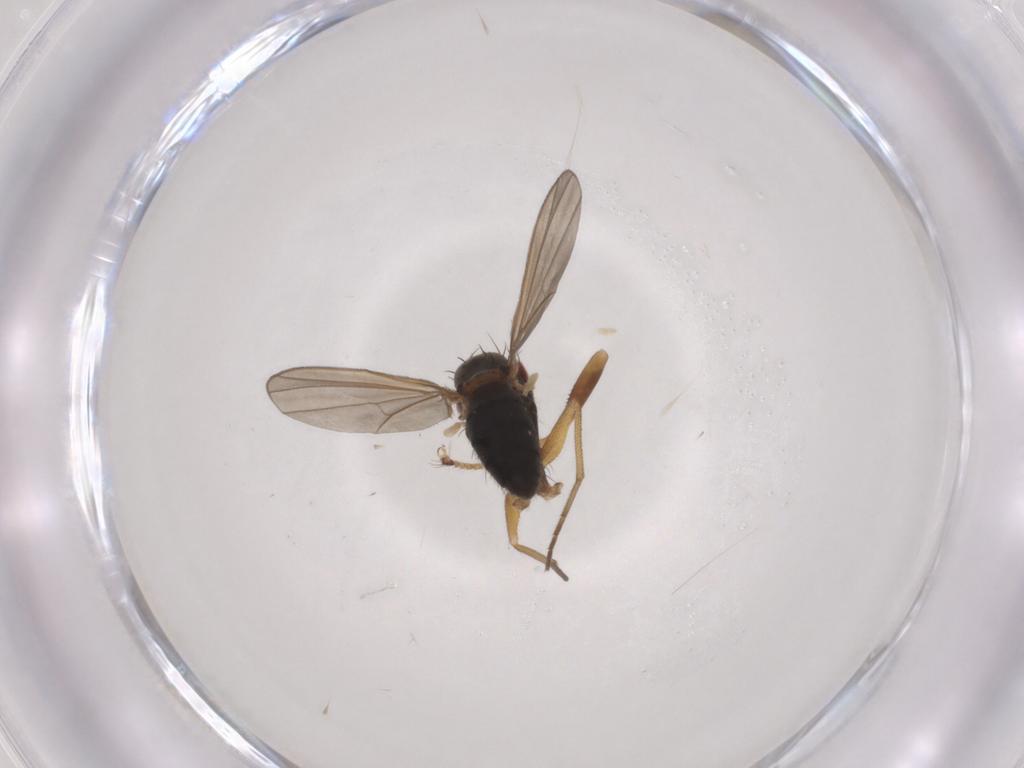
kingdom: Animalia
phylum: Arthropoda
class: Insecta
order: Diptera
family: Dolichopodidae
